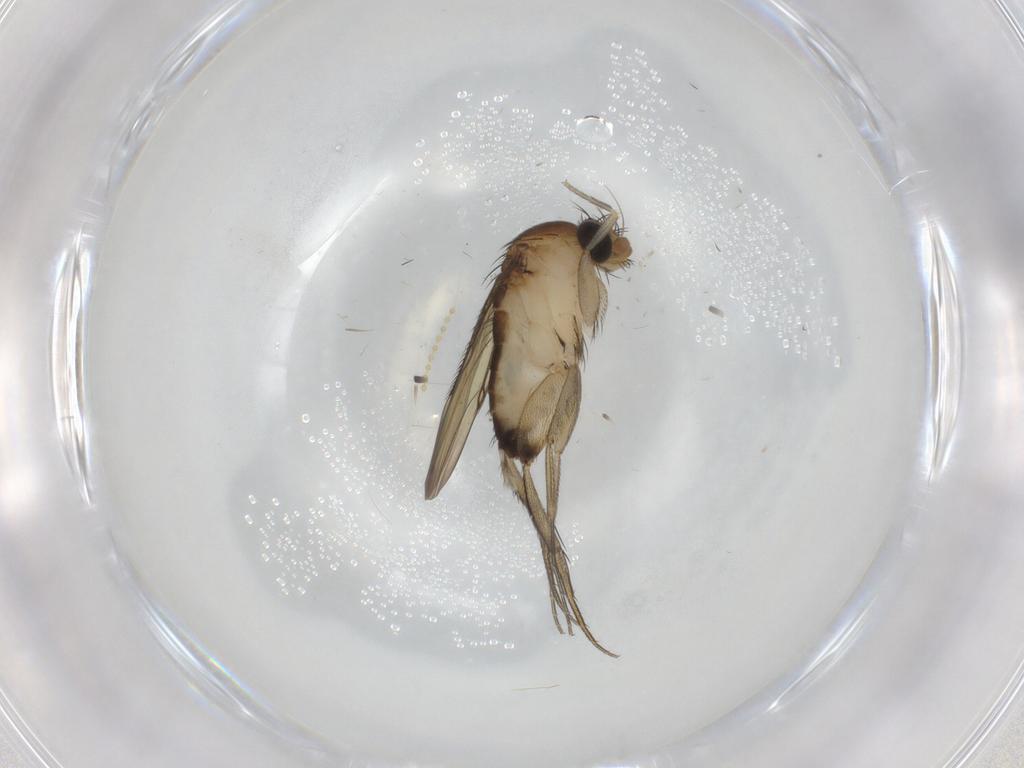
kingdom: Animalia
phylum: Arthropoda
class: Insecta
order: Diptera
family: Phoridae
